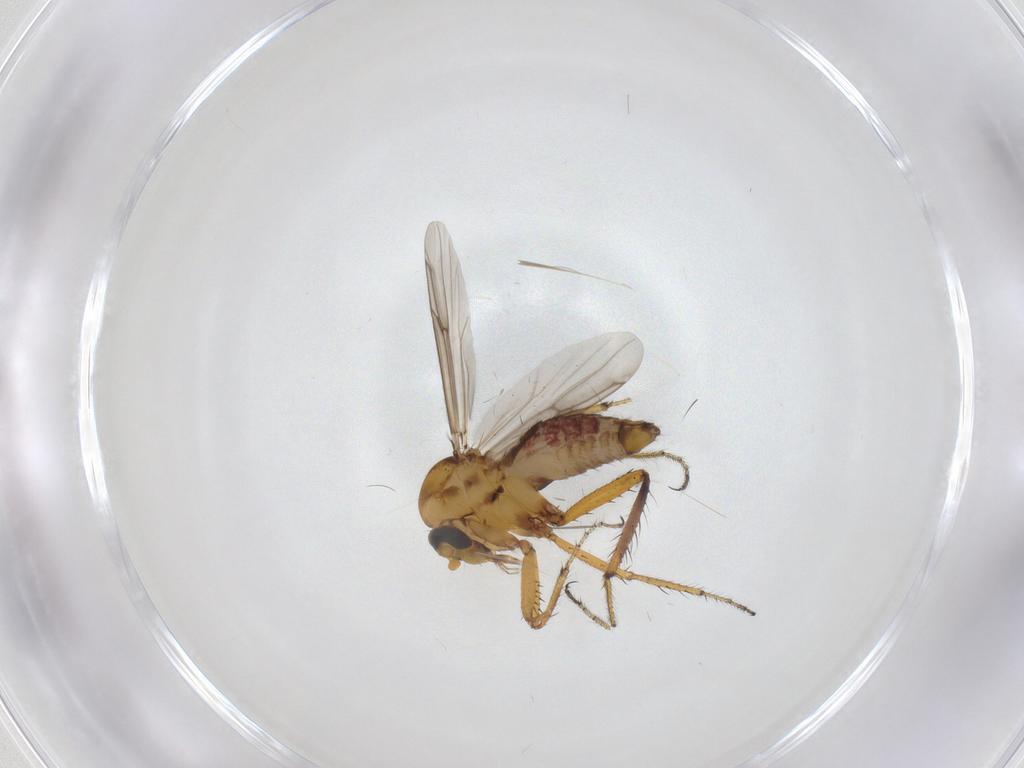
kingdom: Animalia
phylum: Arthropoda
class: Insecta
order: Diptera
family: Ceratopogonidae
